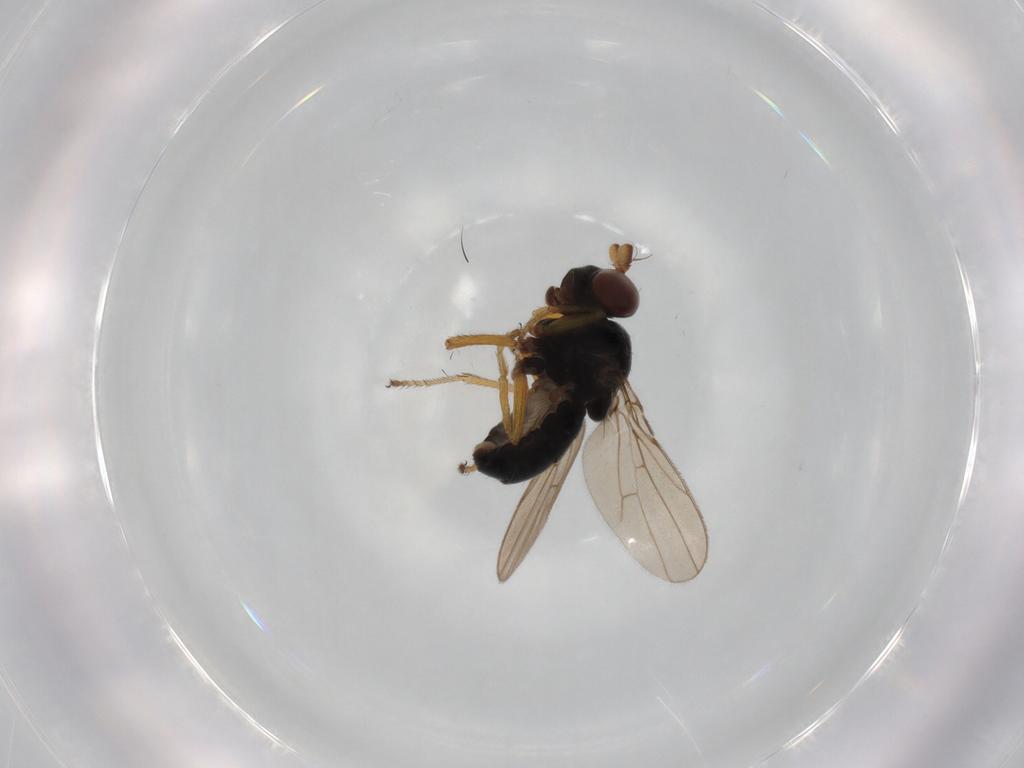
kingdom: Animalia
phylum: Arthropoda
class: Insecta
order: Diptera
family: Ephydridae
